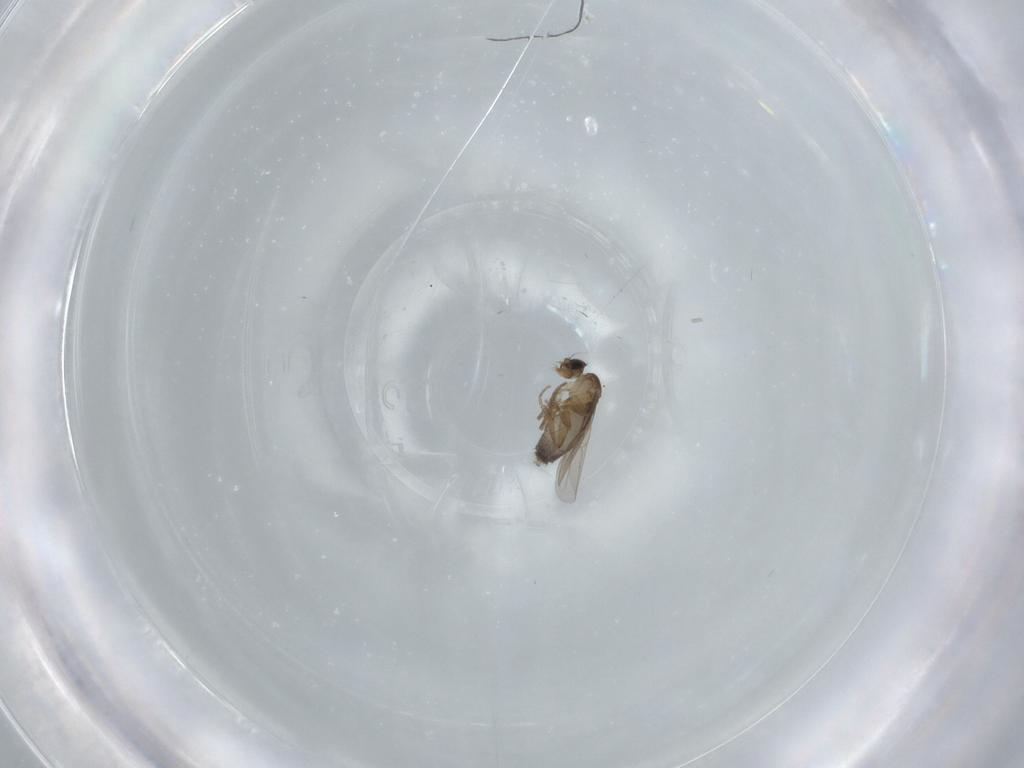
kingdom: Animalia
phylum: Arthropoda
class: Insecta
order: Diptera
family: Phoridae
